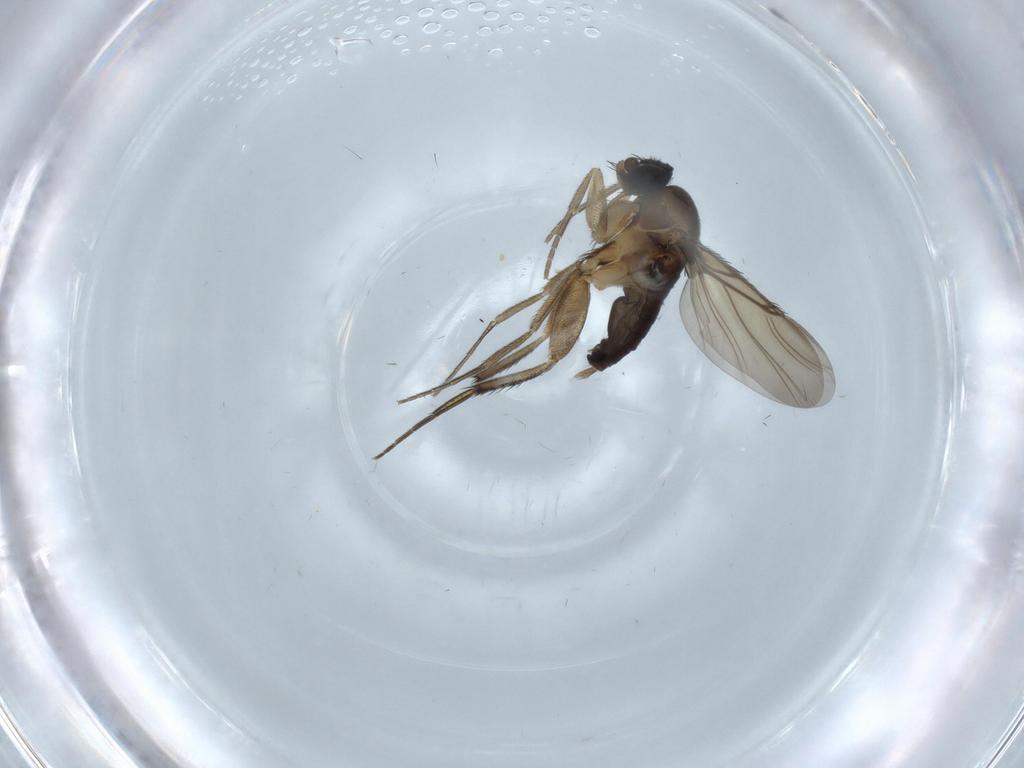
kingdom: Animalia
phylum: Arthropoda
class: Insecta
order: Diptera
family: Phoridae
